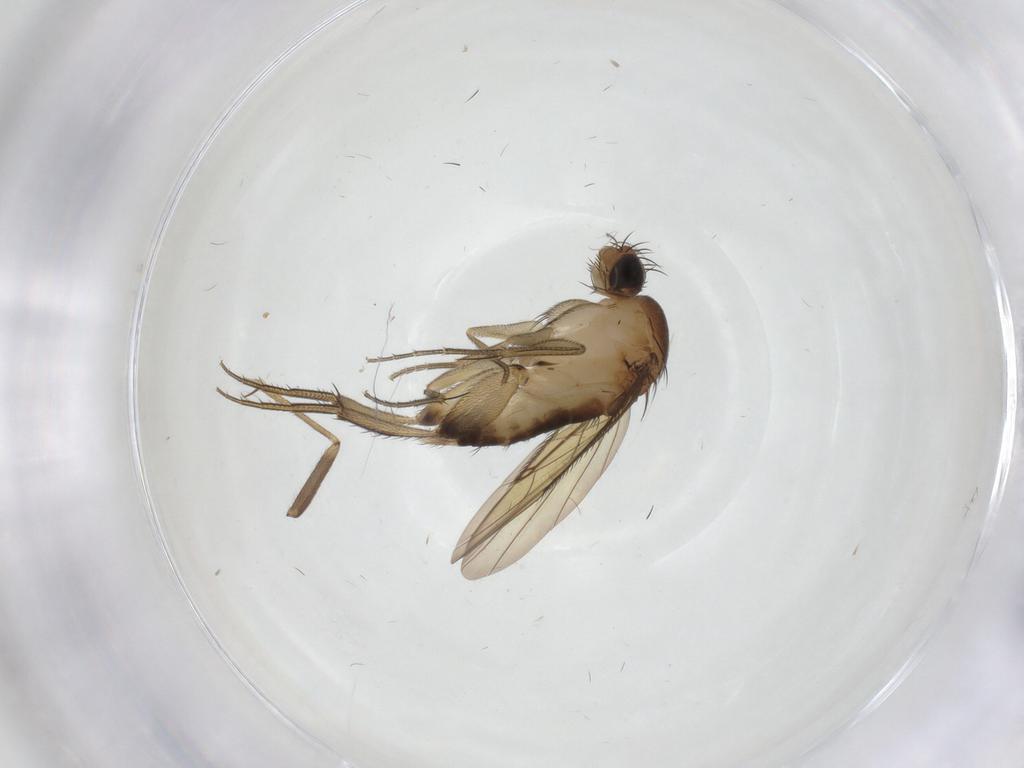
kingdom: Animalia
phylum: Arthropoda
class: Insecta
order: Diptera
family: Phoridae
